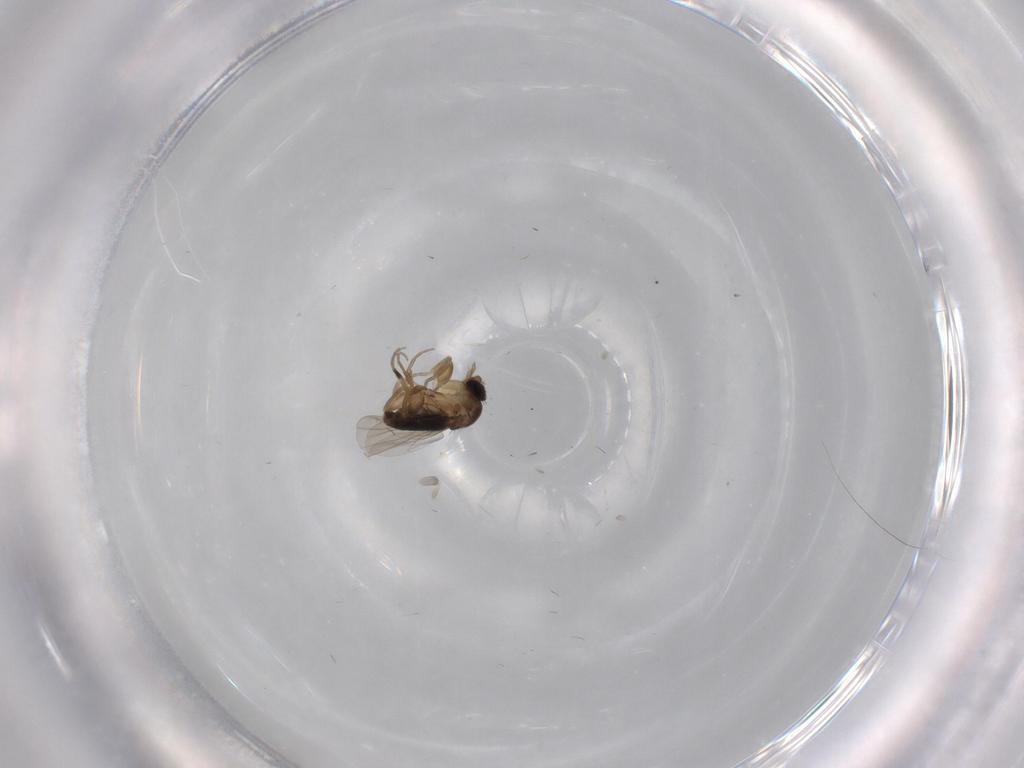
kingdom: Animalia
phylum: Arthropoda
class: Insecta
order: Diptera
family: Phoridae
